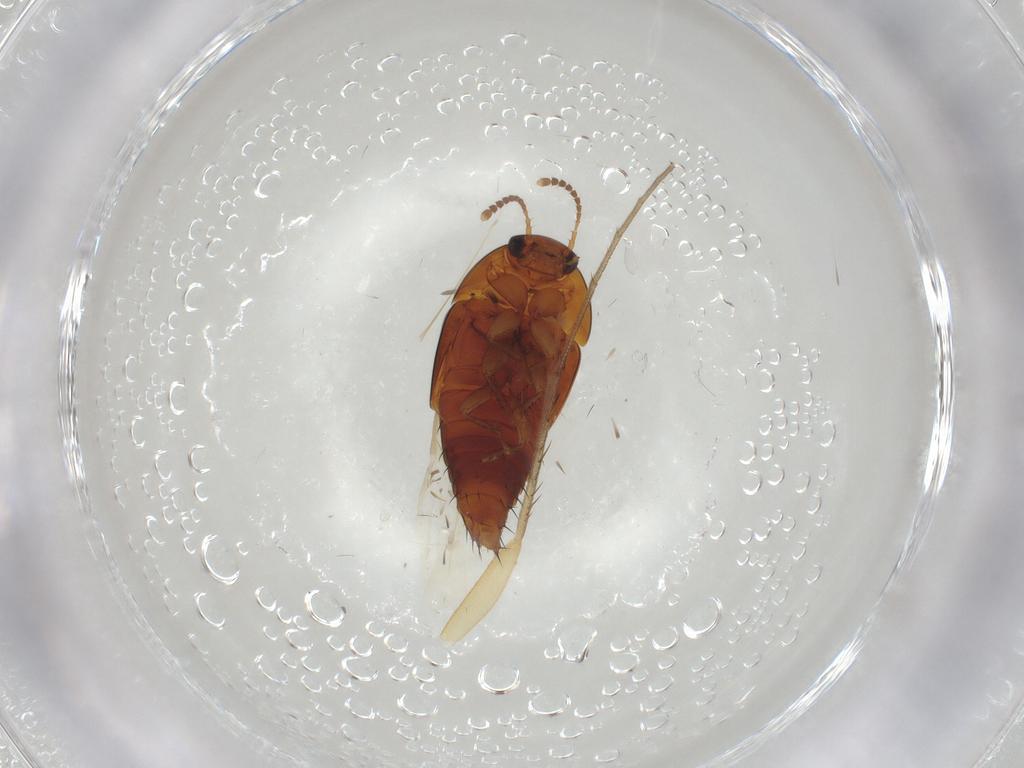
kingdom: Animalia
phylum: Arthropoda
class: Insecta
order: Coleoptera
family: Staphylinidae
